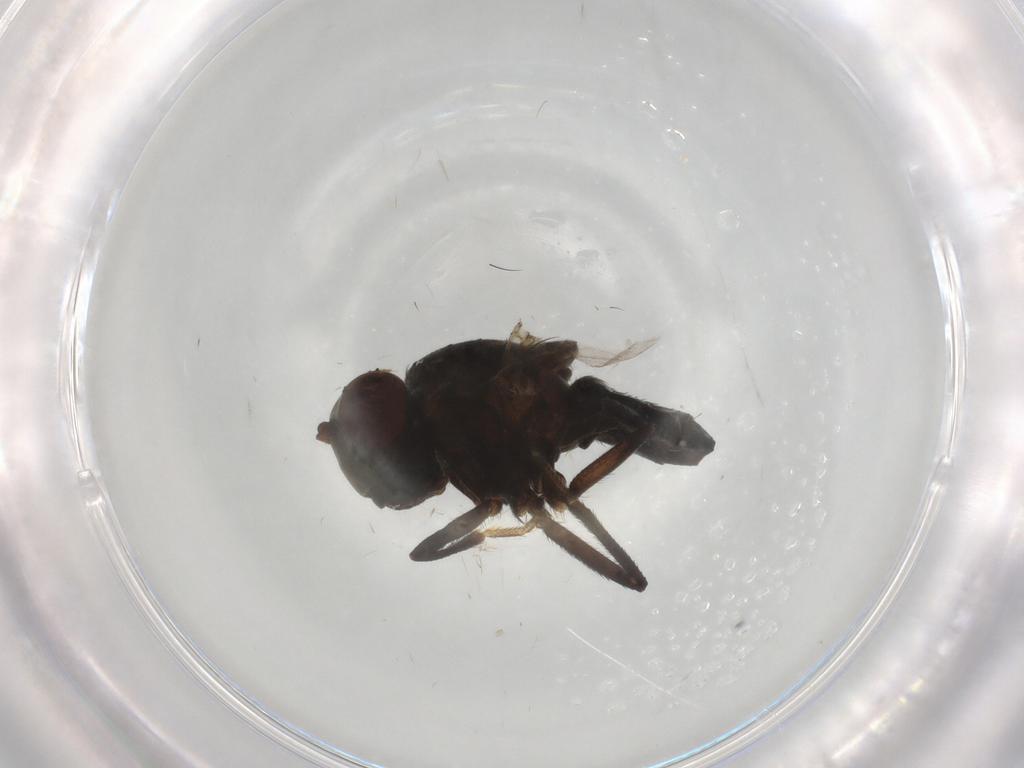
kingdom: Animalia
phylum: Arthropoda
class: Insecta
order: Diptera
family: Ephydridae
